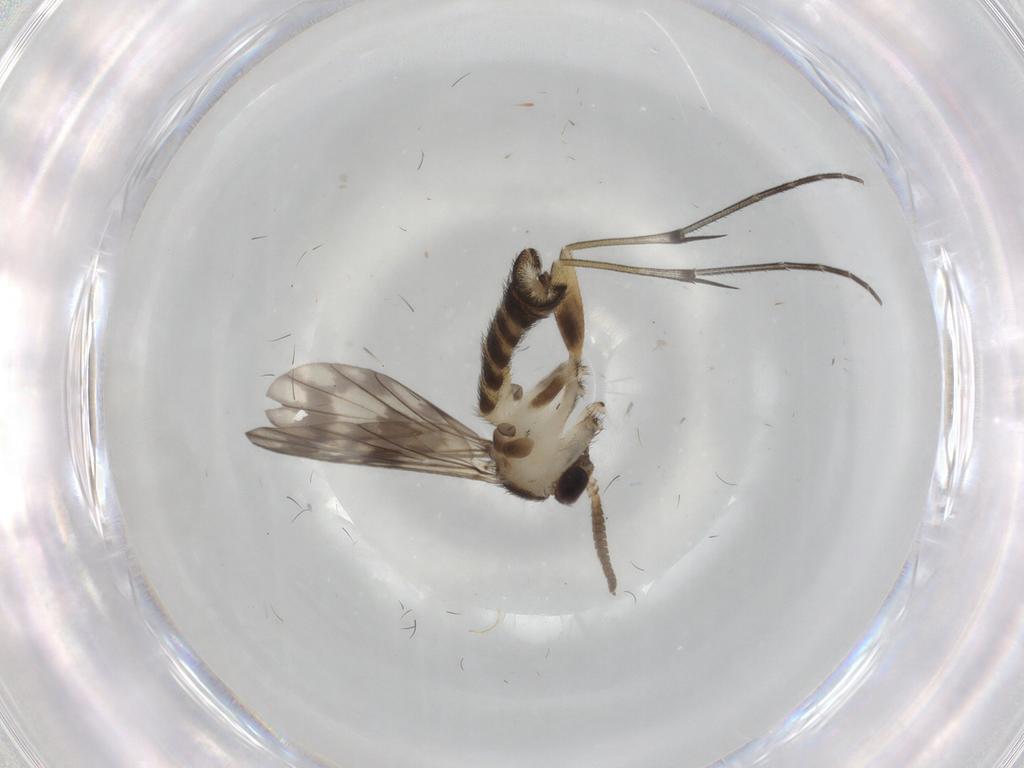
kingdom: Animalia
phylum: Arthropoda
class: Insecta
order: Diptera
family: Keroplatidae
